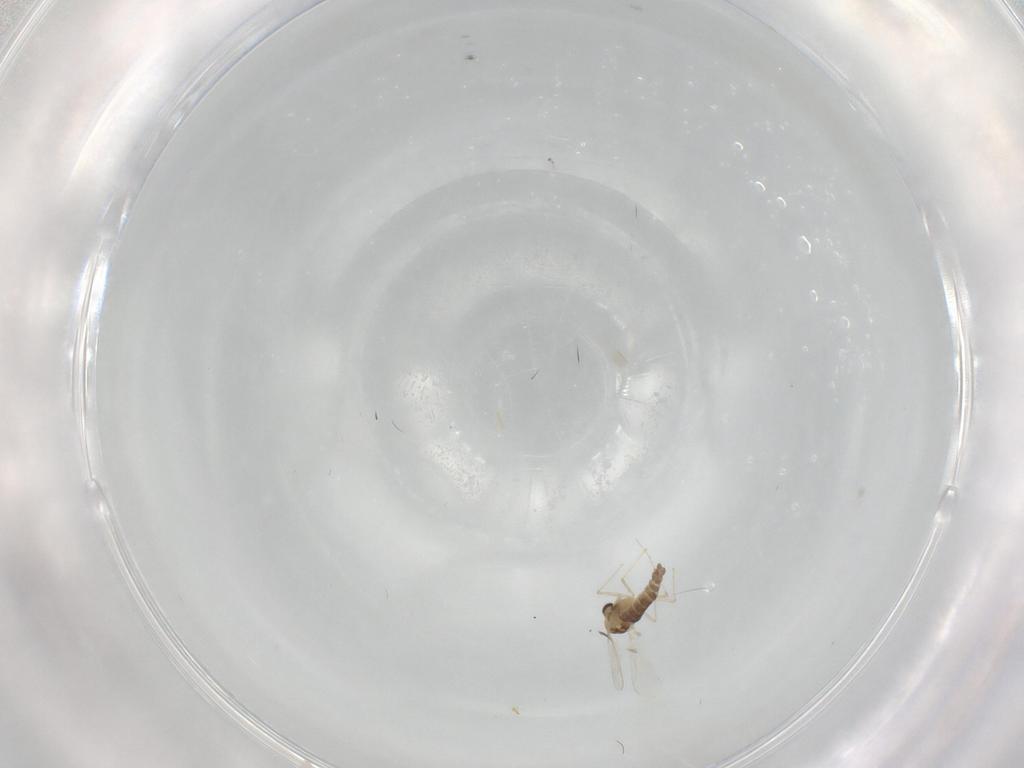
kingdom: Animalia
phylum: Arthropoda
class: Insecta
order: Diptera
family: Chironomidae
